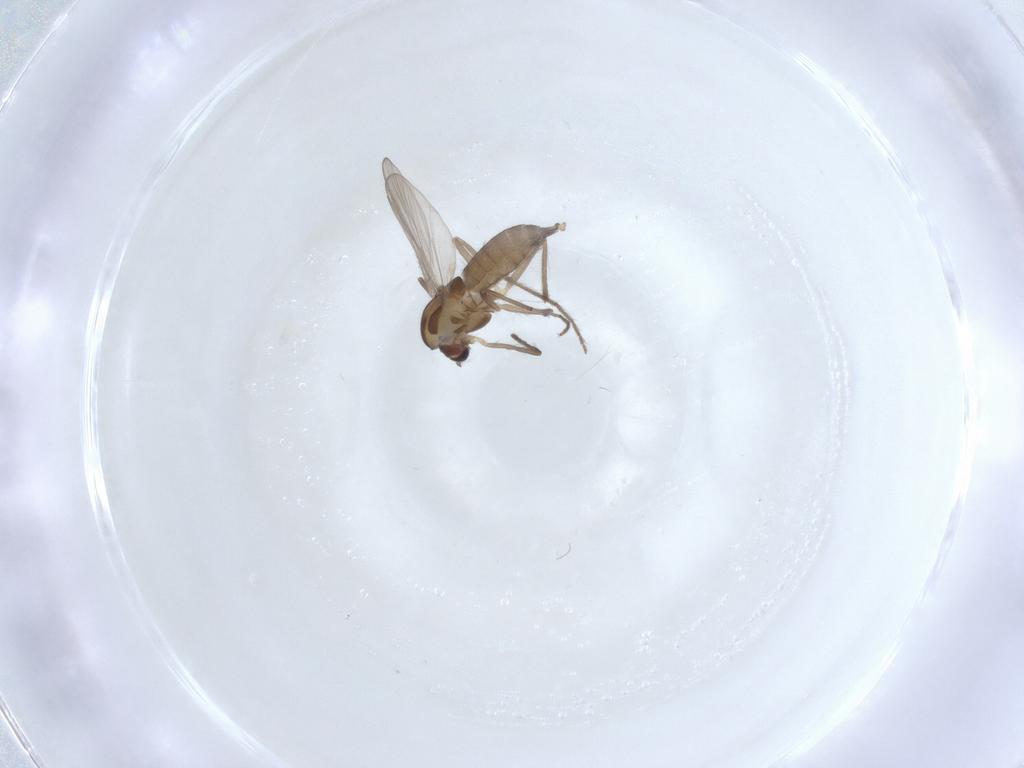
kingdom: Animalia
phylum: Arthropoda
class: Insecta
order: Diptera
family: Chironomidae
